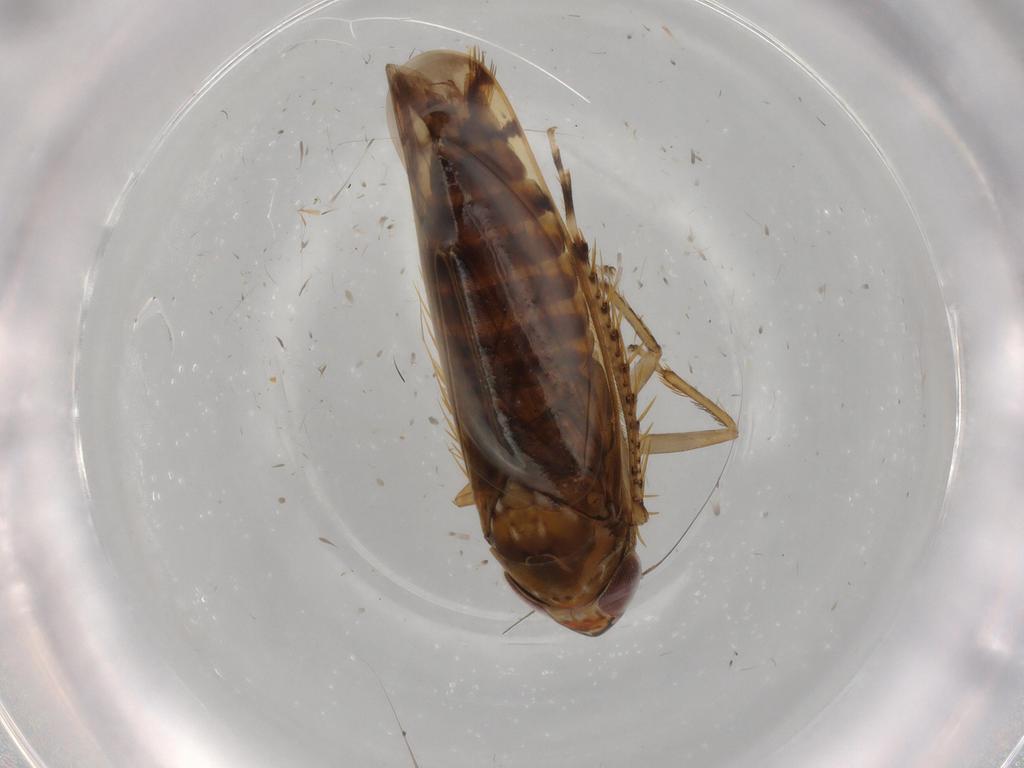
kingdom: Animalia
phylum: Arthropoda
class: Insecta
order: Hemiptera
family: Cicadellidae
